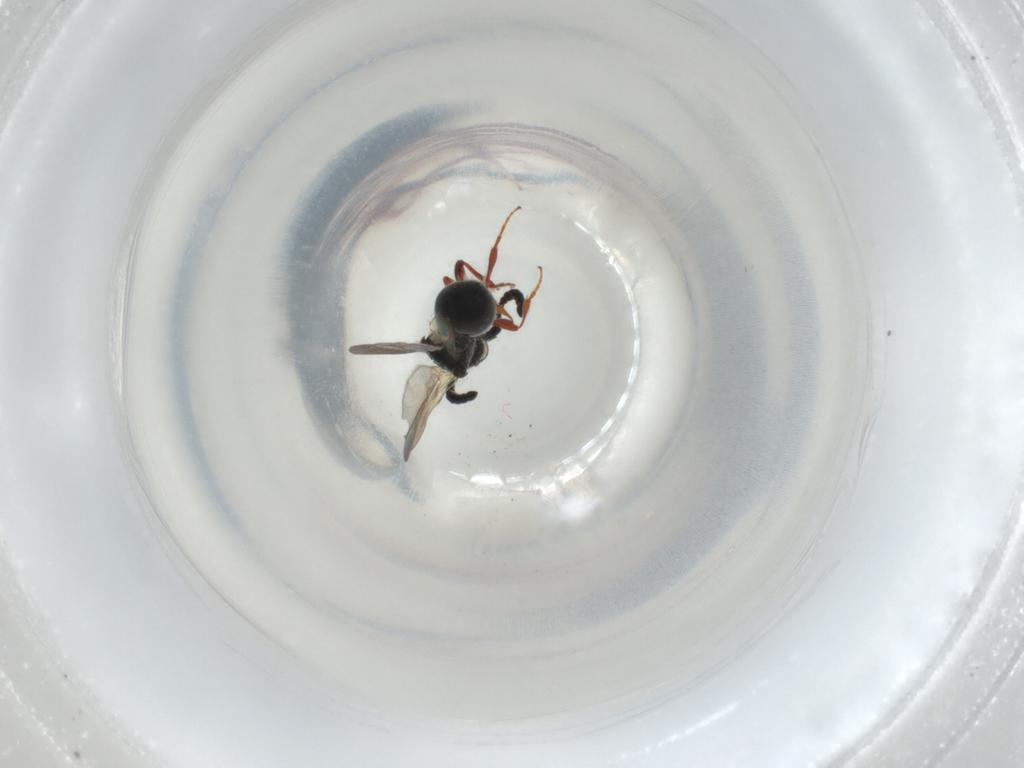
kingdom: Animalia
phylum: Arthropoda
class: Insecta
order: Hymenoptera
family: Diapriidae
